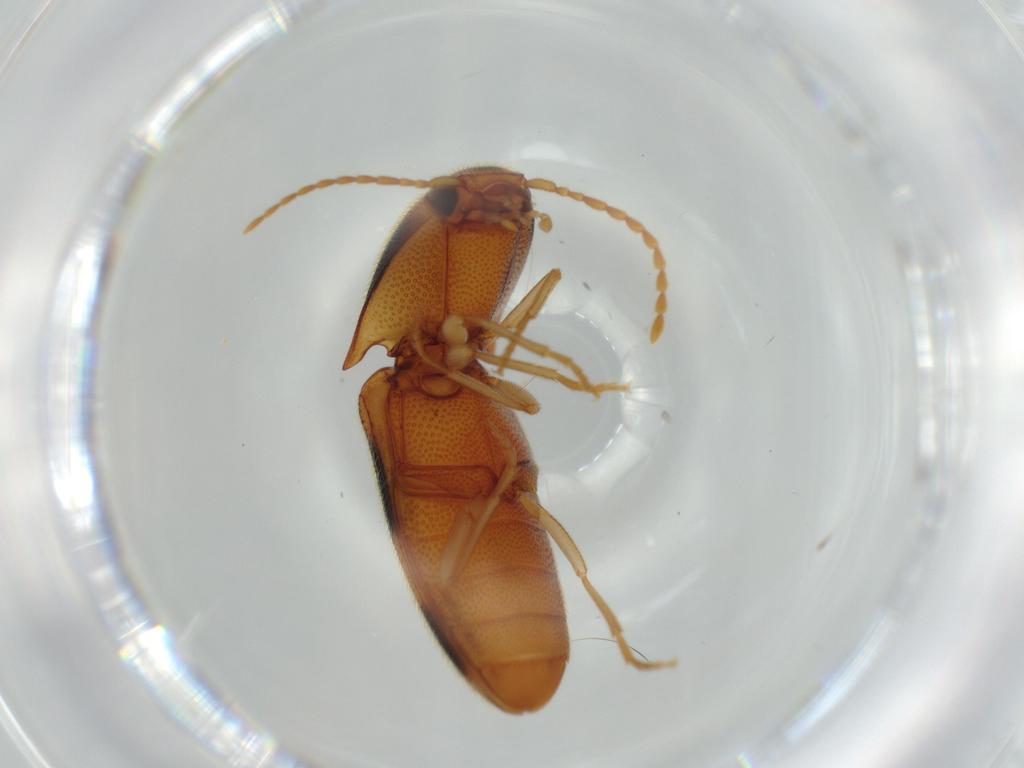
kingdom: Animalia
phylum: Arthropoda
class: Insecta
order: Coleoptera
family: Elateridae
